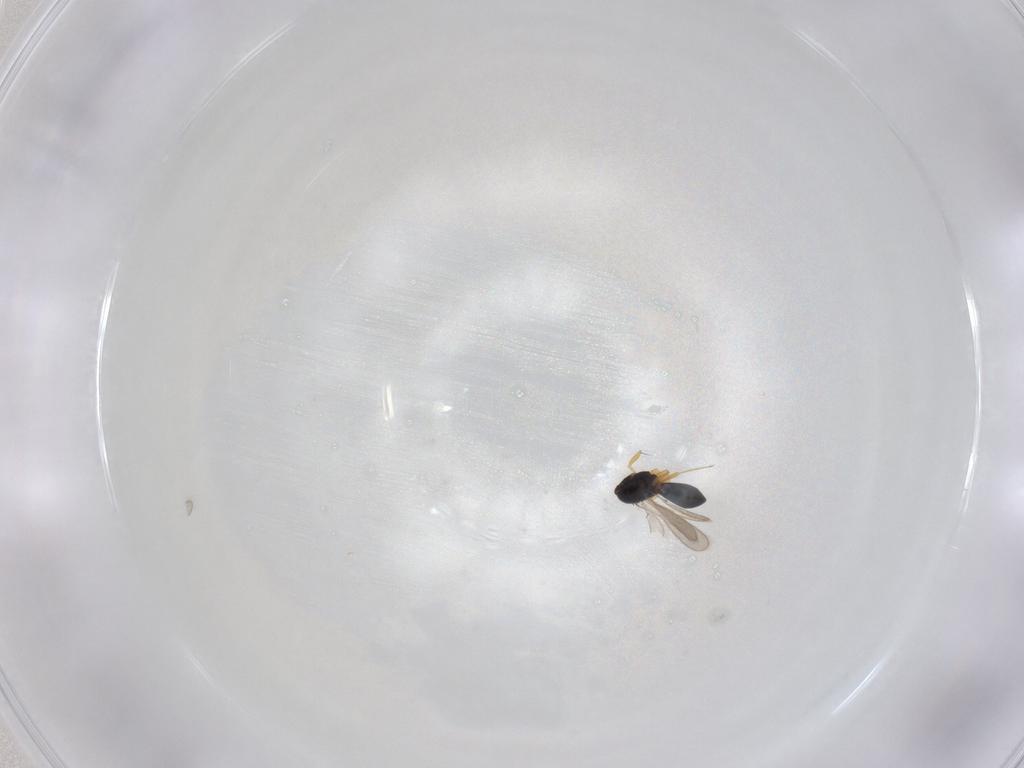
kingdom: Animalia
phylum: Arthropoda
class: Insecta
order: Hymenoptera
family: Scelionidae
